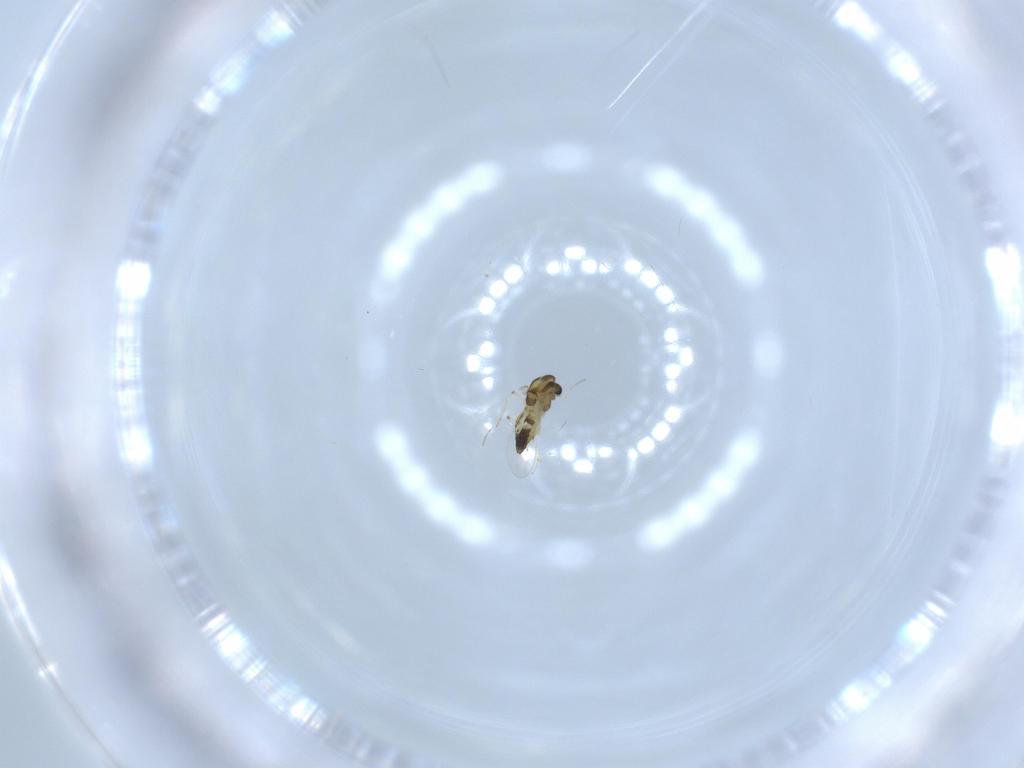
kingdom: Animalia
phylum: Arthropoda
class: Insecta
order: Diptera
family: Chironomidae
